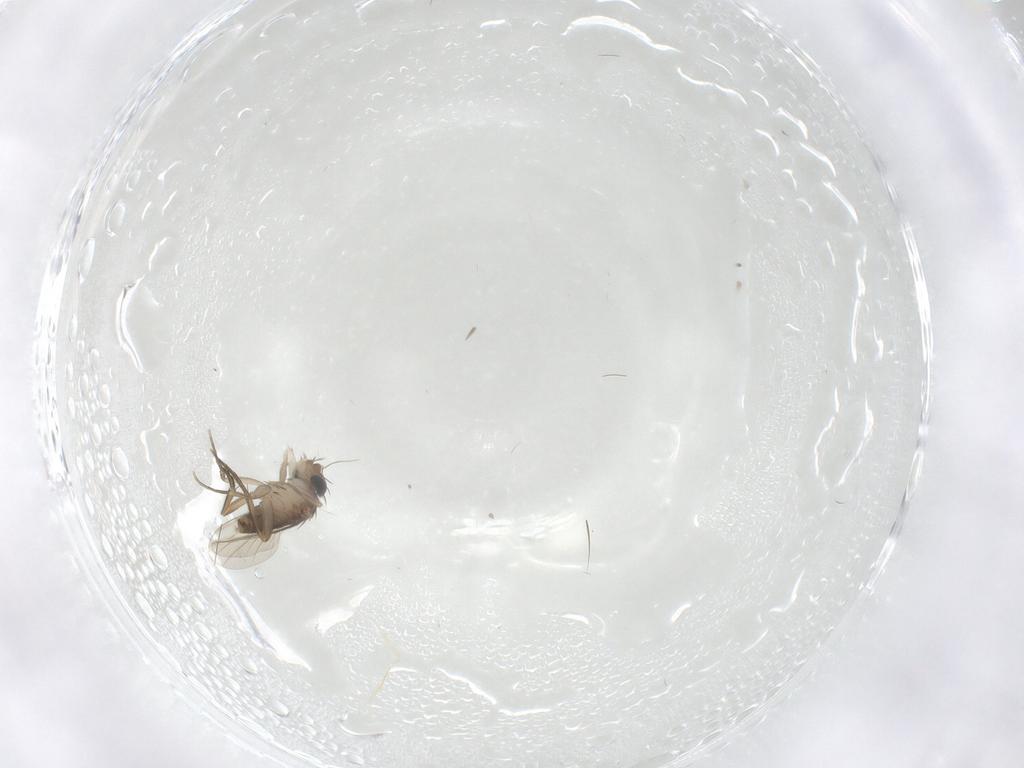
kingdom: Animalia
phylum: Arthropoda
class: Insecta
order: Diptera
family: Phoridae
